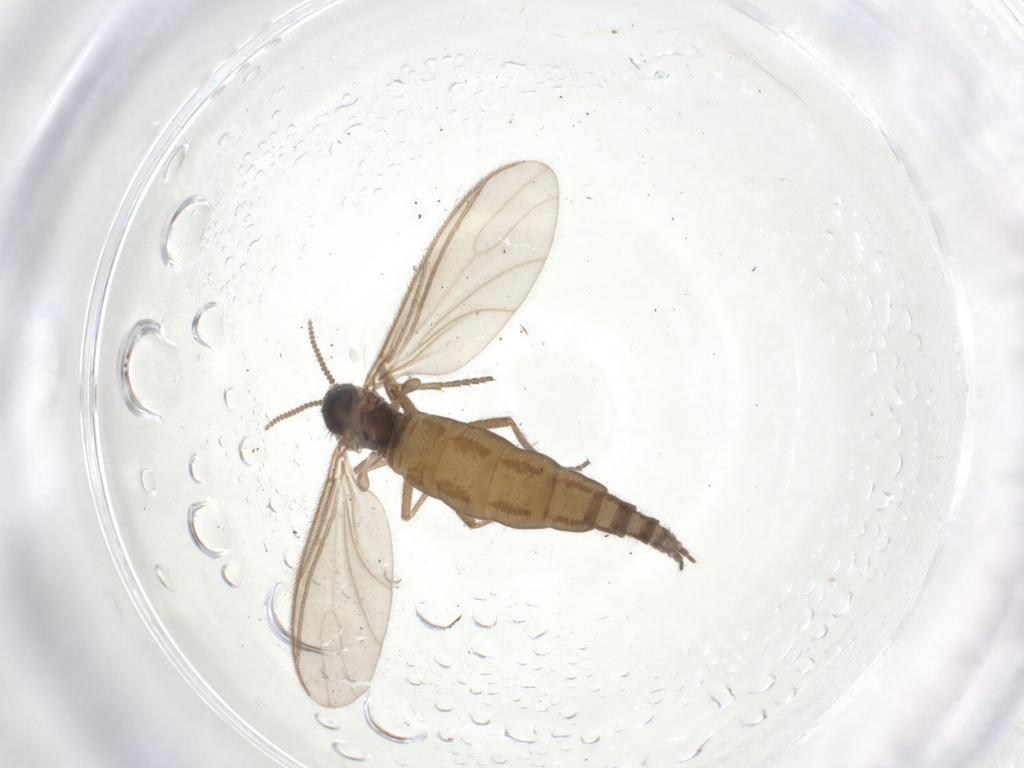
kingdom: Animalia
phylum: Arthropoda
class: Insecta
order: Diptera
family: Sciaridae
